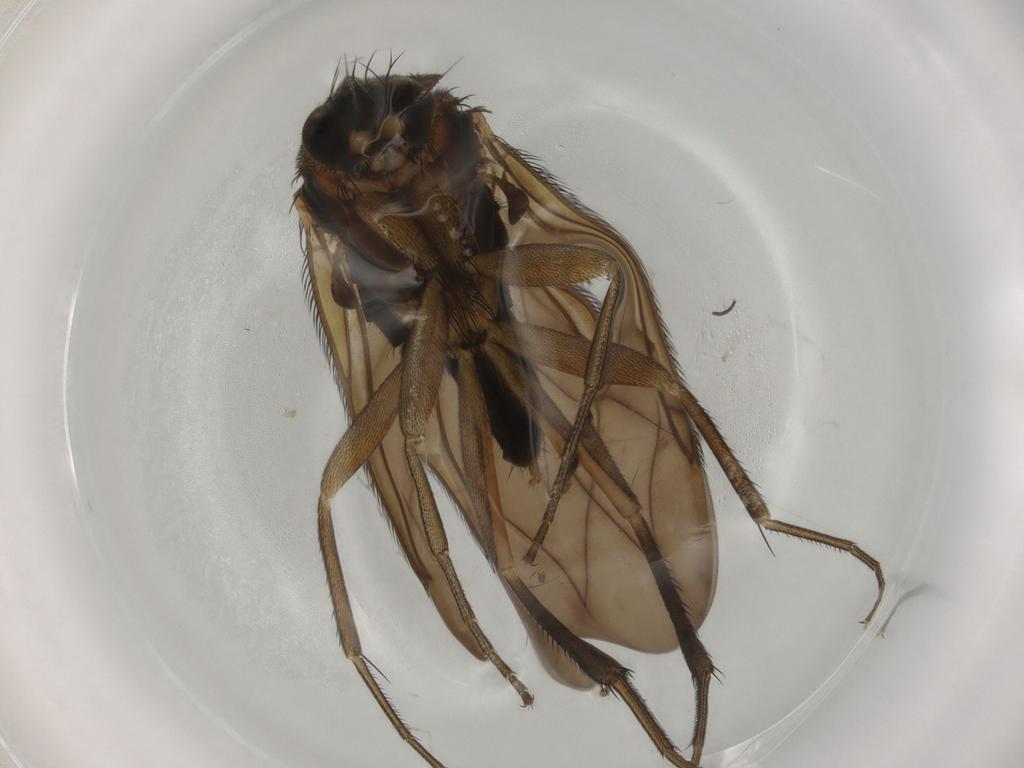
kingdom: Animalia
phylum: Arthropoda
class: Insecta
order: Diptera
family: Phoridae
